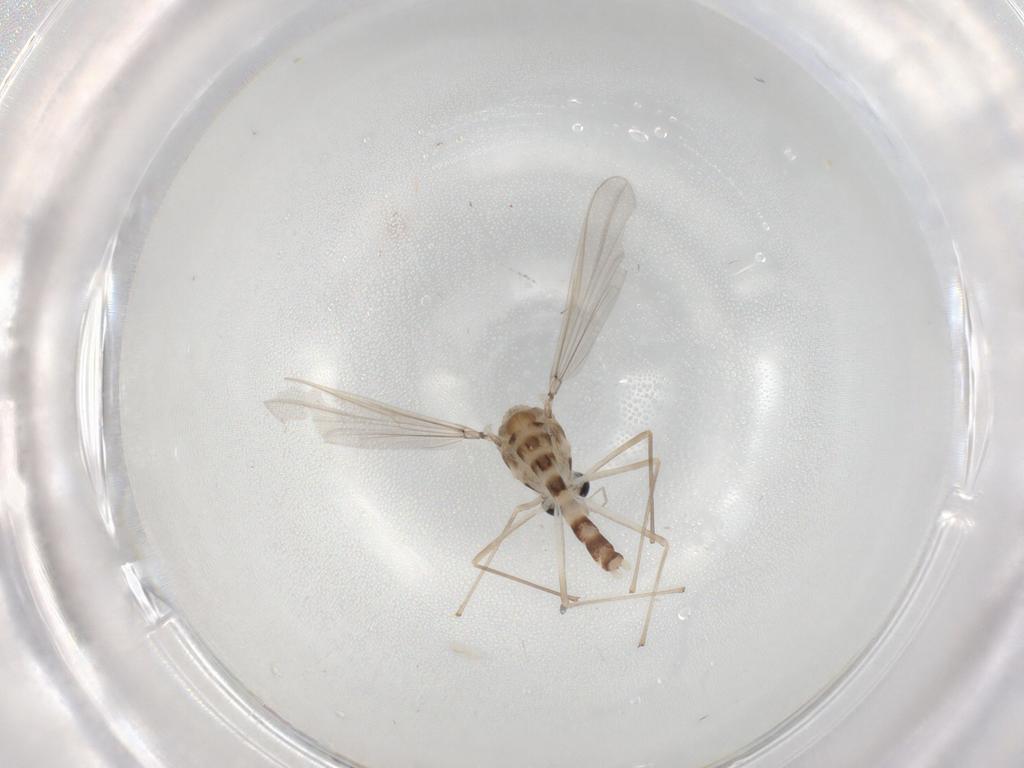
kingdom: Animalia
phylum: Arthropoda
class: Insecta
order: Diptera
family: Chironomidae
